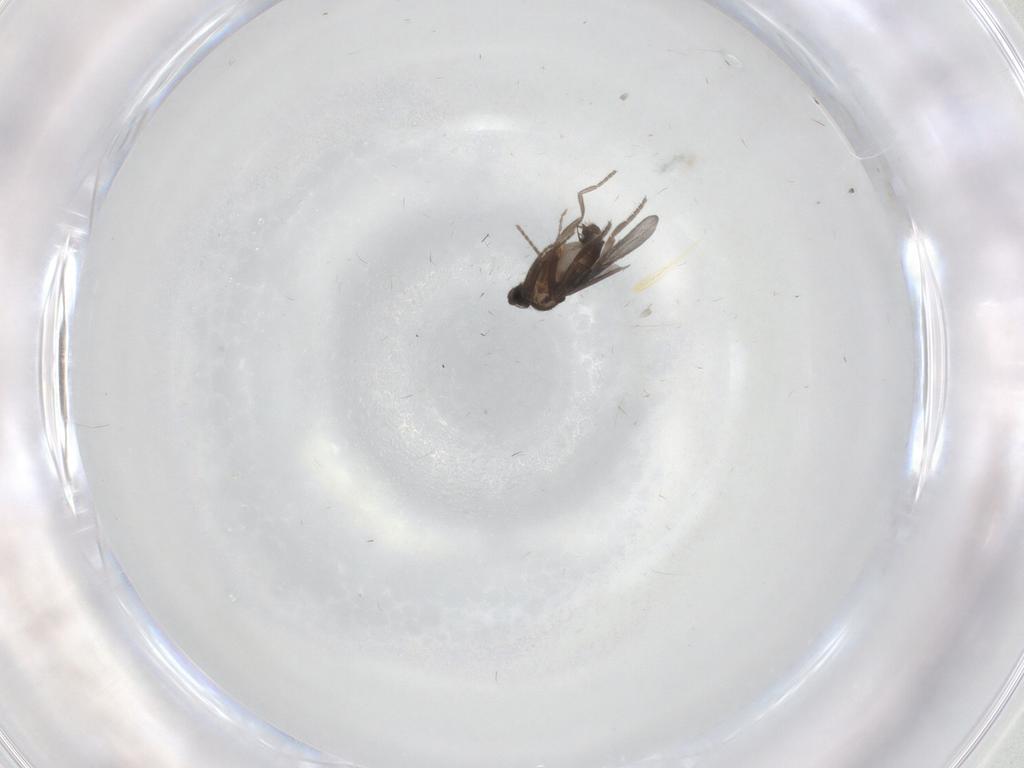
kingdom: Animalia
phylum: Arthropoda
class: Insecta
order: Diptera
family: Phoridae
